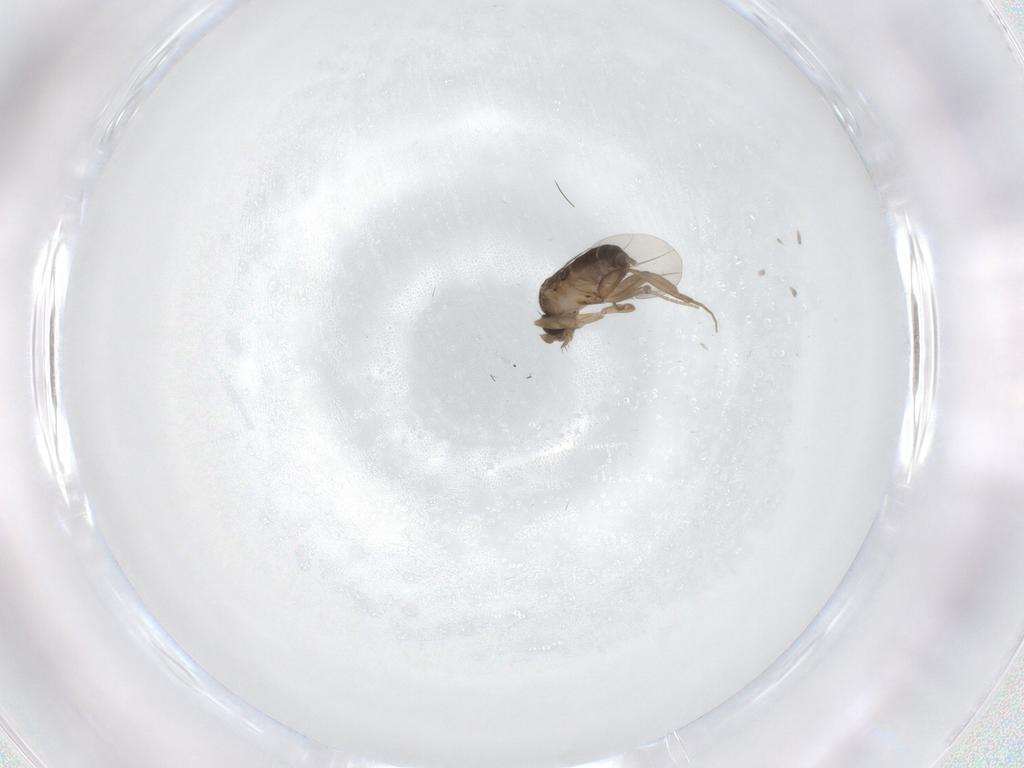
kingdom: Animalia
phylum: Arthropoda
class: Insecta
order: Diptera
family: Phoridae
